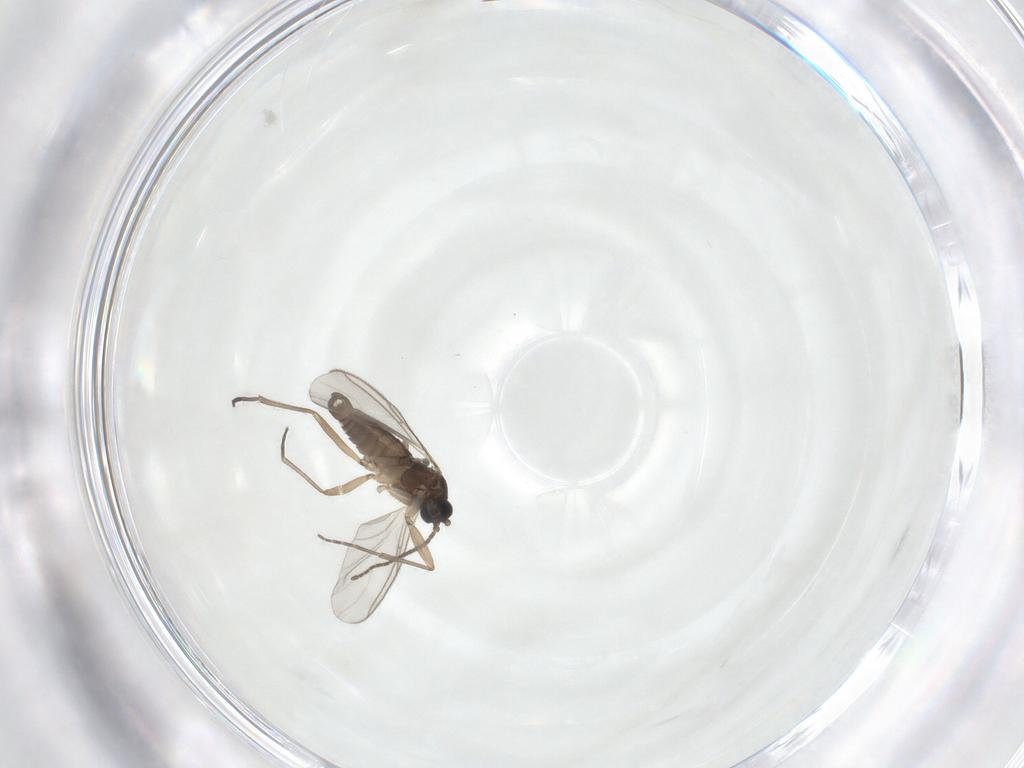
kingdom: Animalia
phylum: Arthropoda
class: Insecta
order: Diptera
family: Sciaridae
